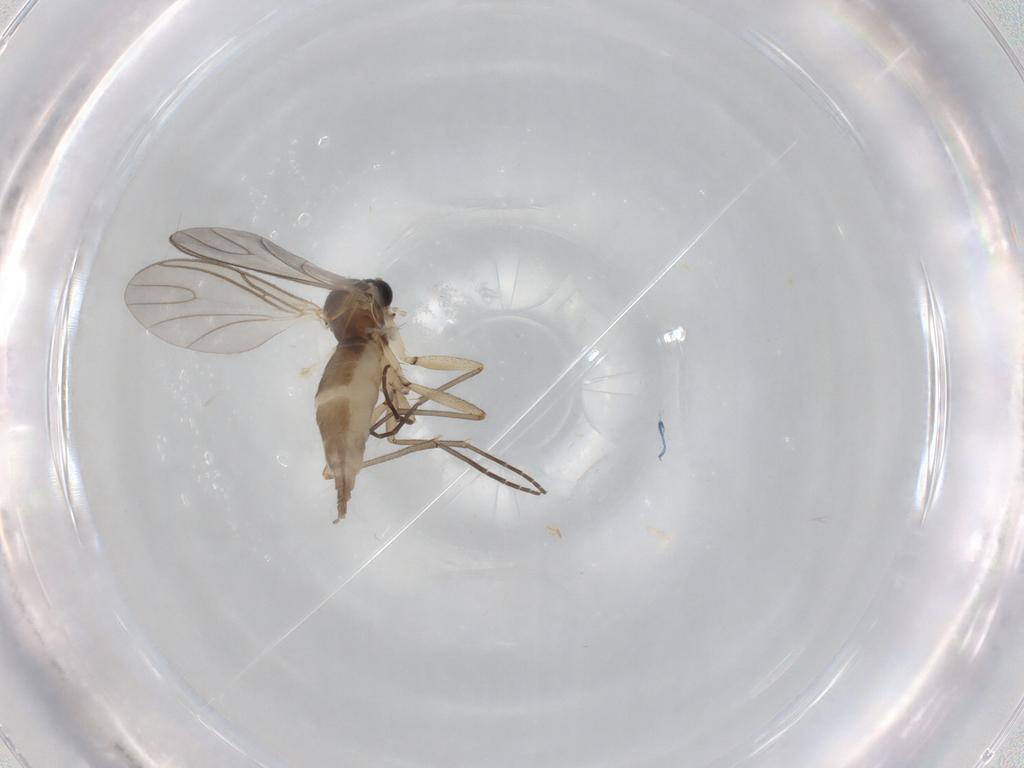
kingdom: Animalia
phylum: Arthropoda
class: Insecta
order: Diptera
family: Sciaridae
